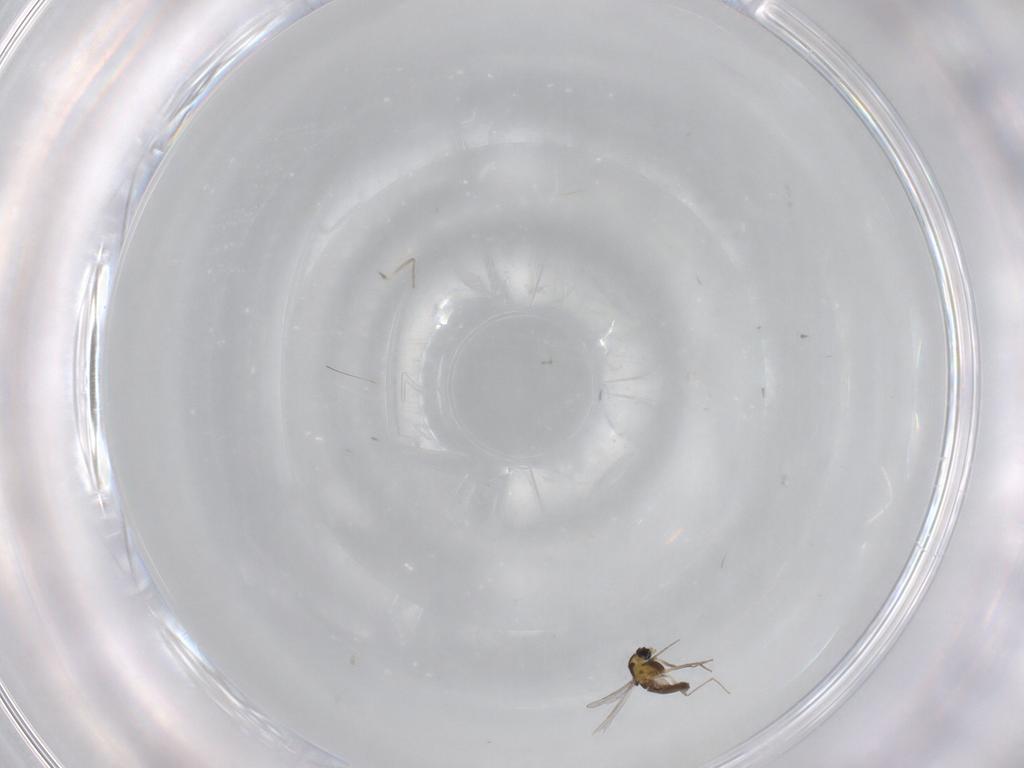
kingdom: Animalia
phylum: Arthropoda
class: Insecta
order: Diptera
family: Chironomidae
